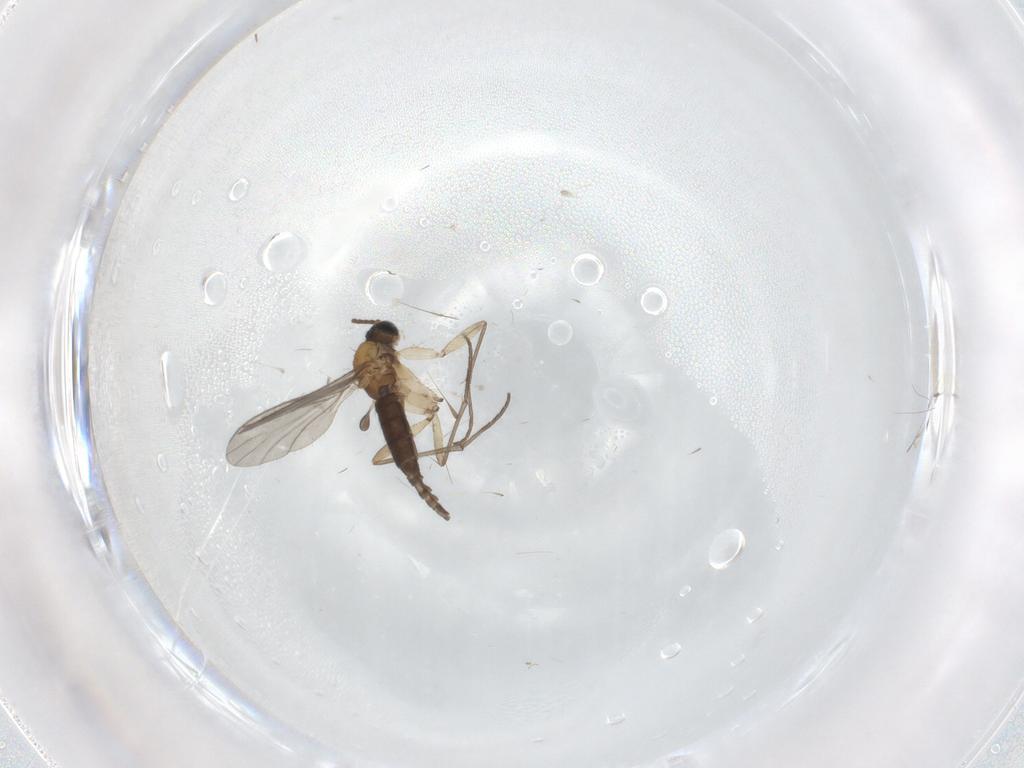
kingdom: Animalia
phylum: Arthropoda
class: Insecta
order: Diptera
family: Sciaridae
